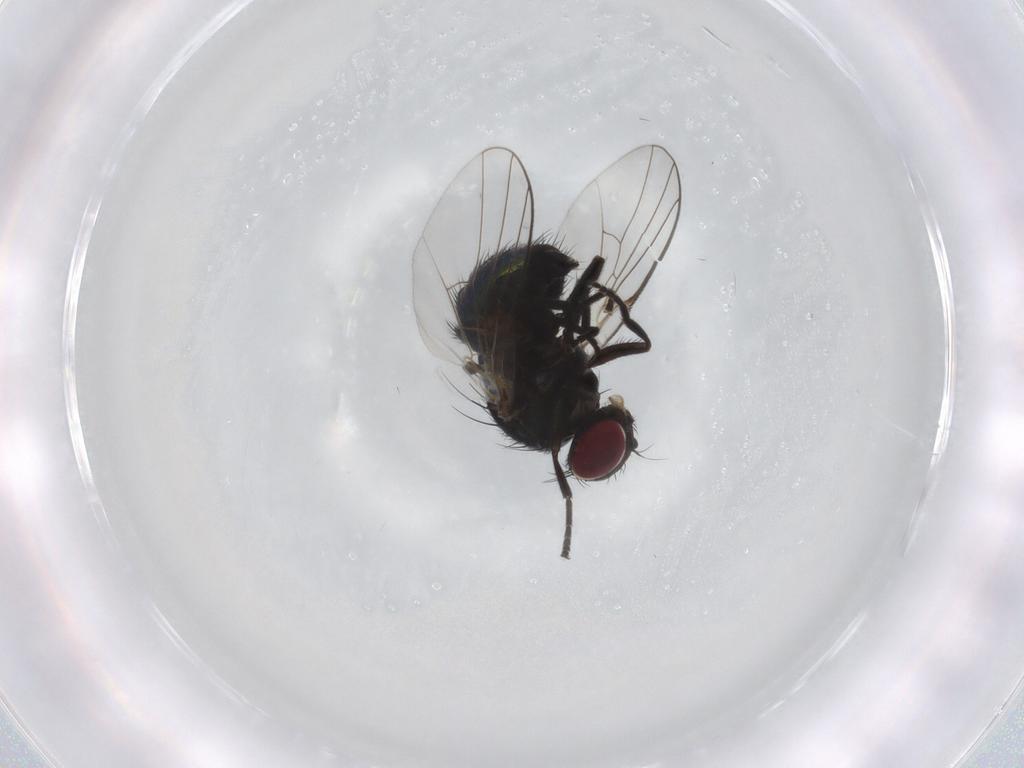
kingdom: Animalia
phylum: Arthropoda
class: Insecta
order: Diptera
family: Agromyzidae
